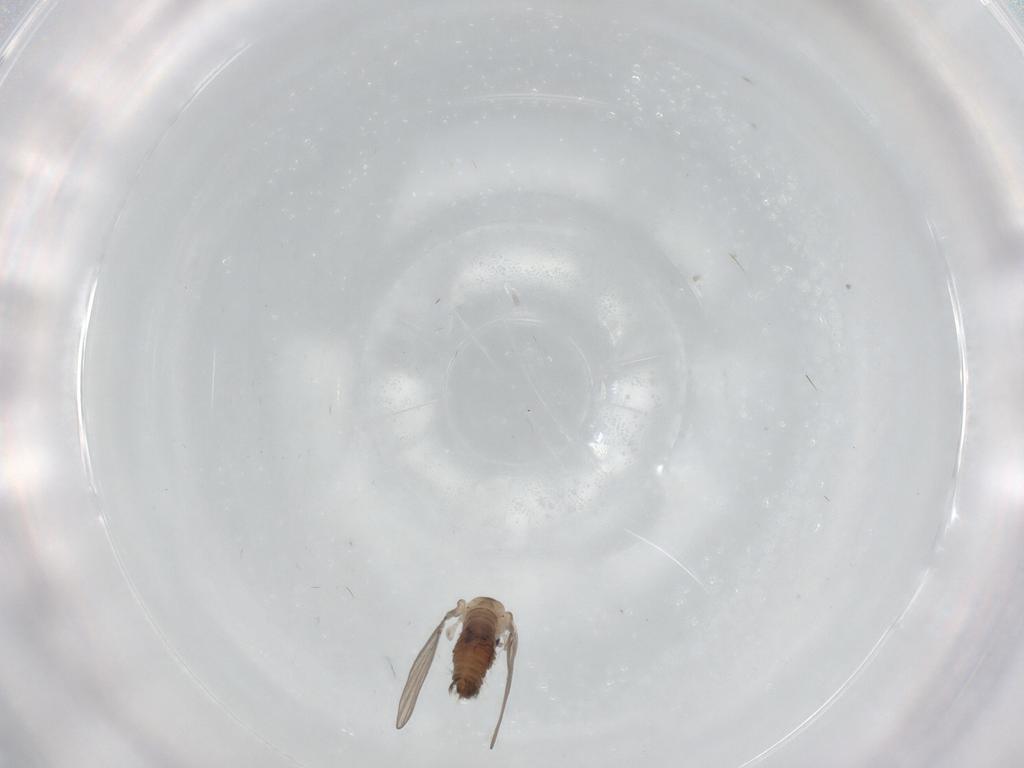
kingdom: Animalia
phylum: Arthropoda
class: Insecta
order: Diptera
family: Psychodidae
